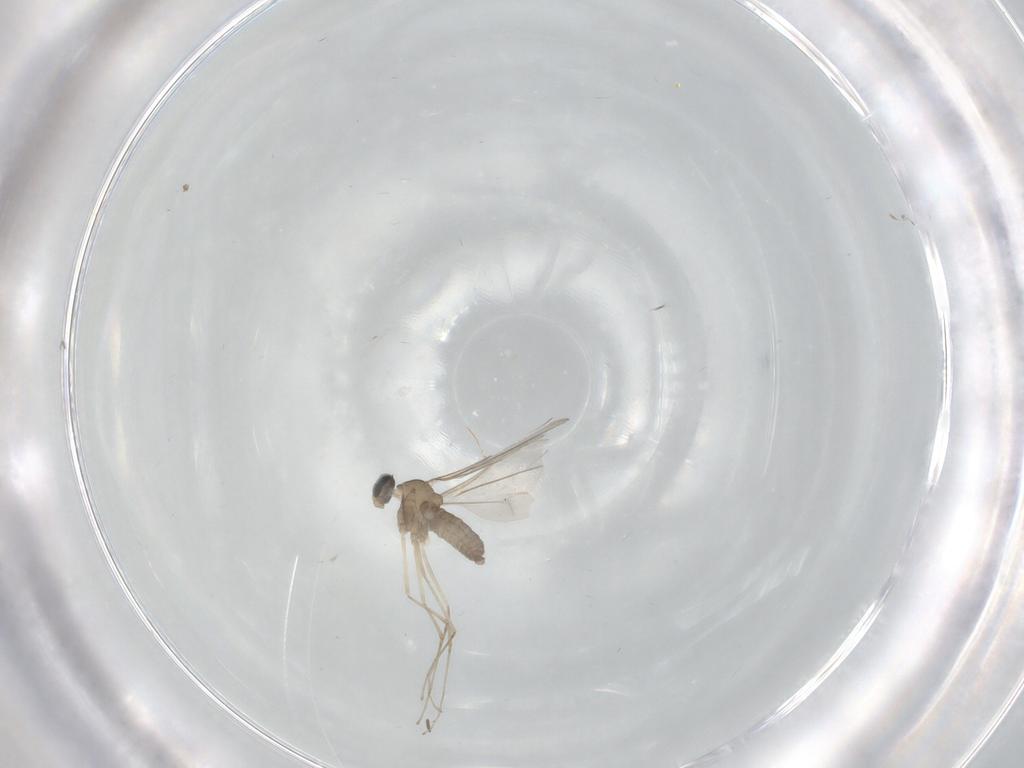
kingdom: Animalia
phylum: Arthropoda
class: Insecta
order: Diptera
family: Cecidomyiidae
